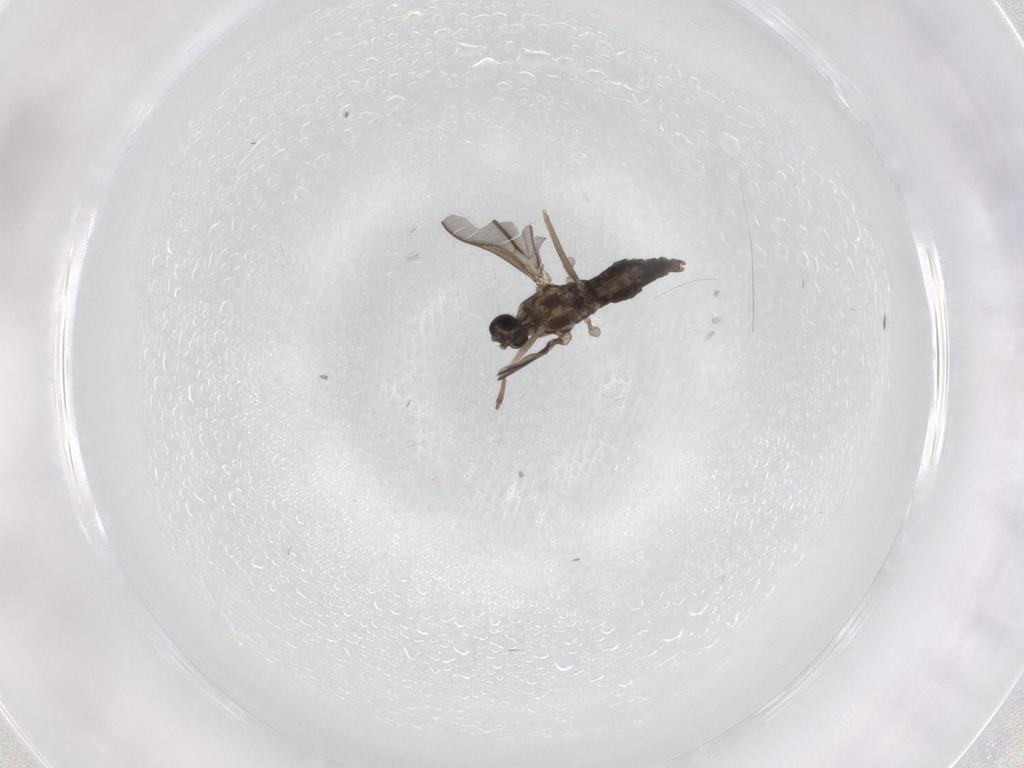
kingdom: Animalia
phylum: Arthropoda
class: Insecta
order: Diptera
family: Cecidomyiidae
